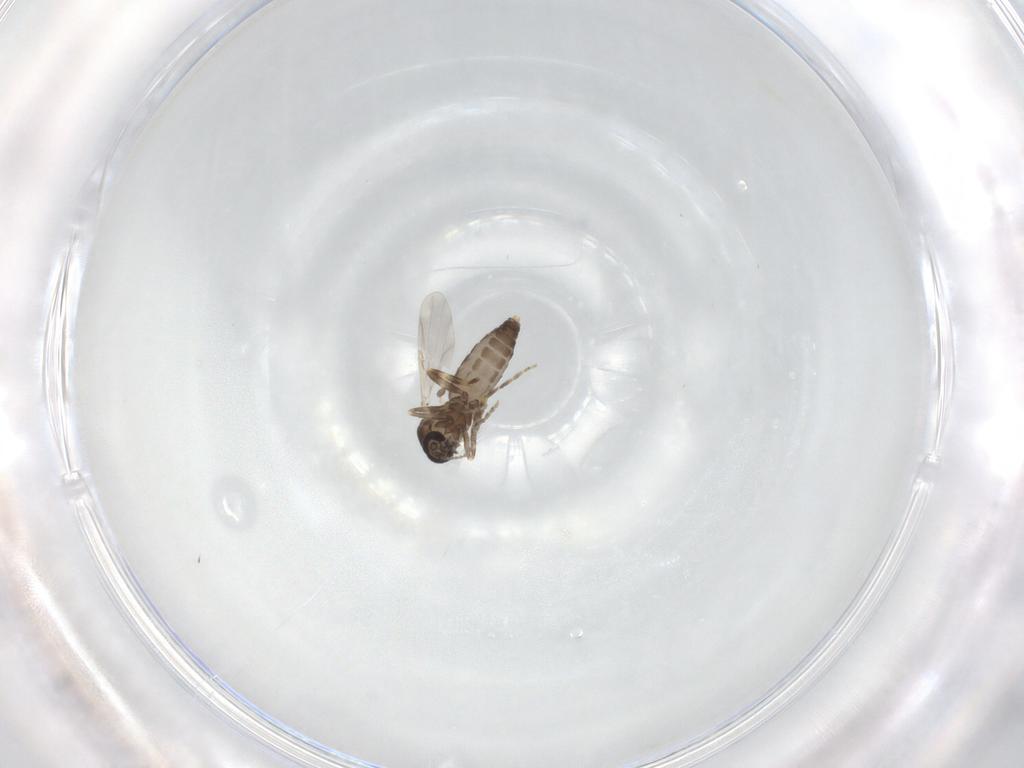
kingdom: Animalia
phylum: Arthropoda
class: Insecta
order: Diptera
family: Ceratopogonidae
